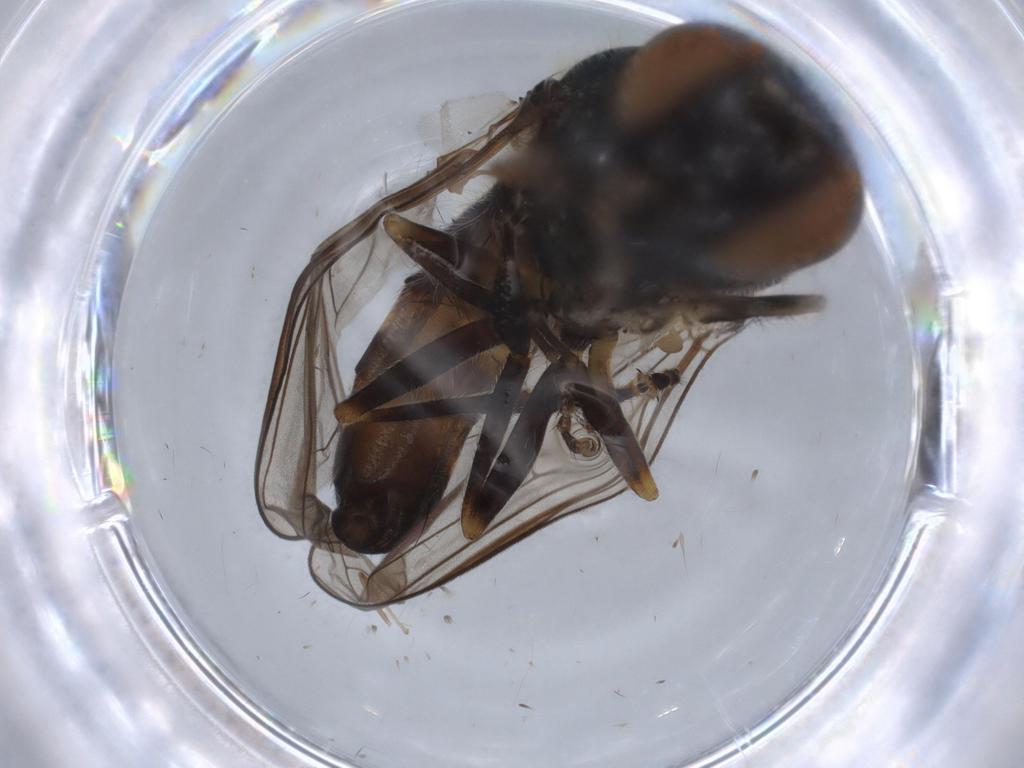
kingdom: Animalia
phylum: Arthropoda
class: Insecta
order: Diptera
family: Syrphidae
